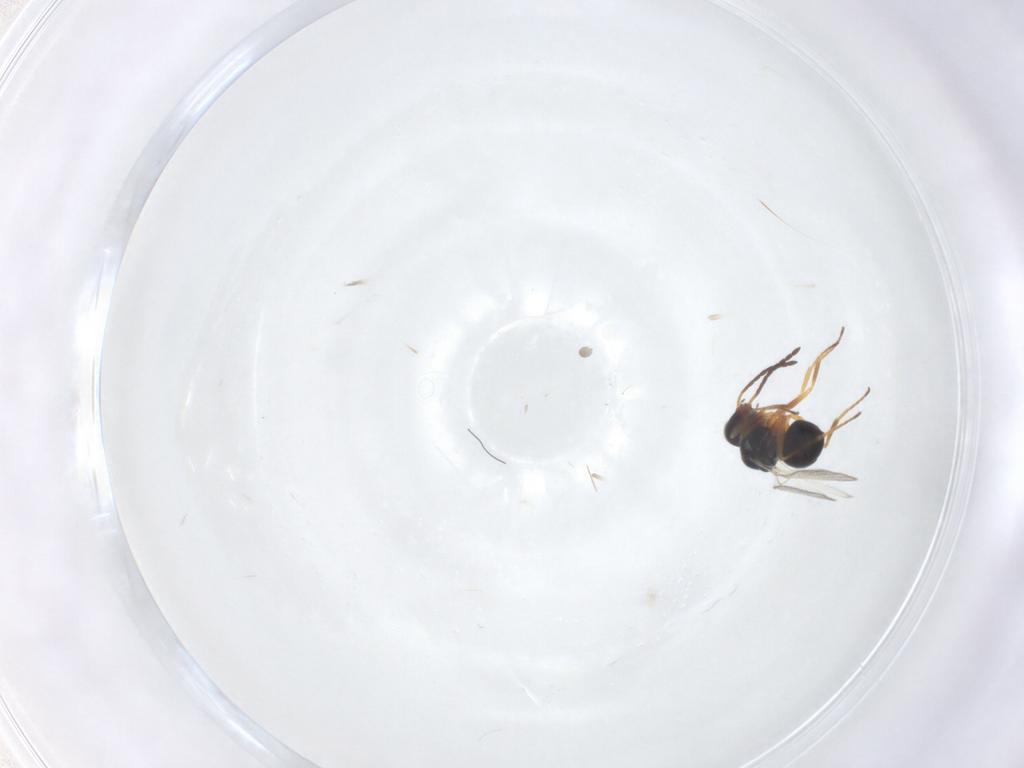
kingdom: Animalia
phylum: Arthropoda
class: Insecta
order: Hymenoptera
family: Figitidae
